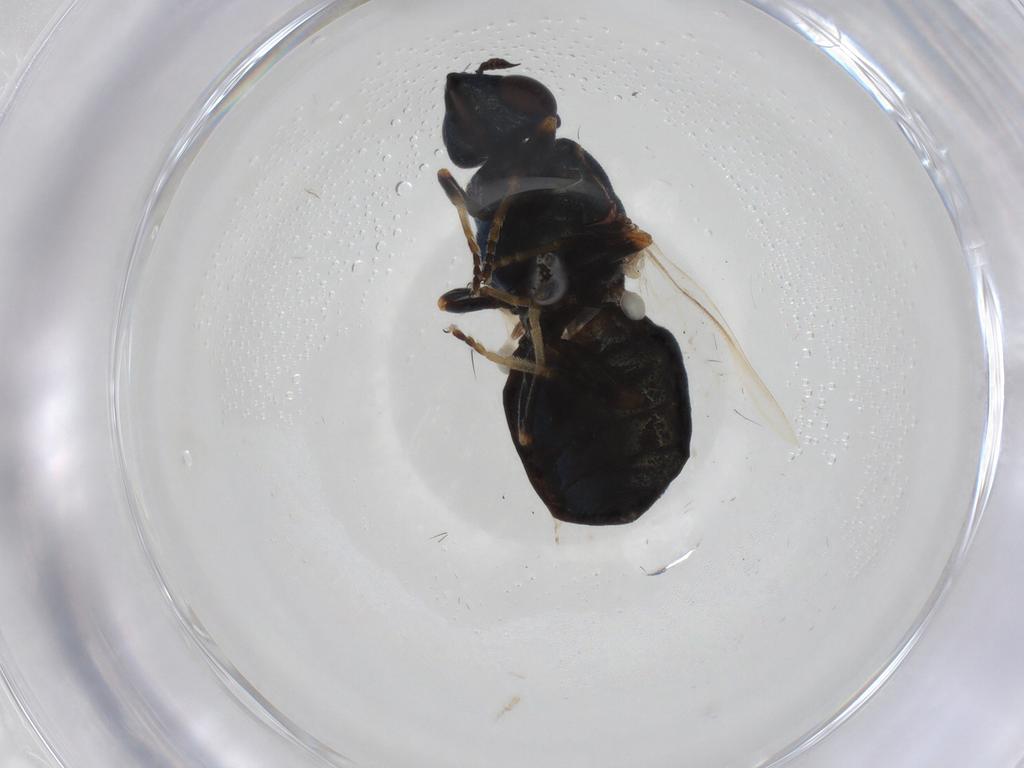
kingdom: Animalia
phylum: Arthropoda
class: Insecta
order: Diptera
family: Stratiomyidae
